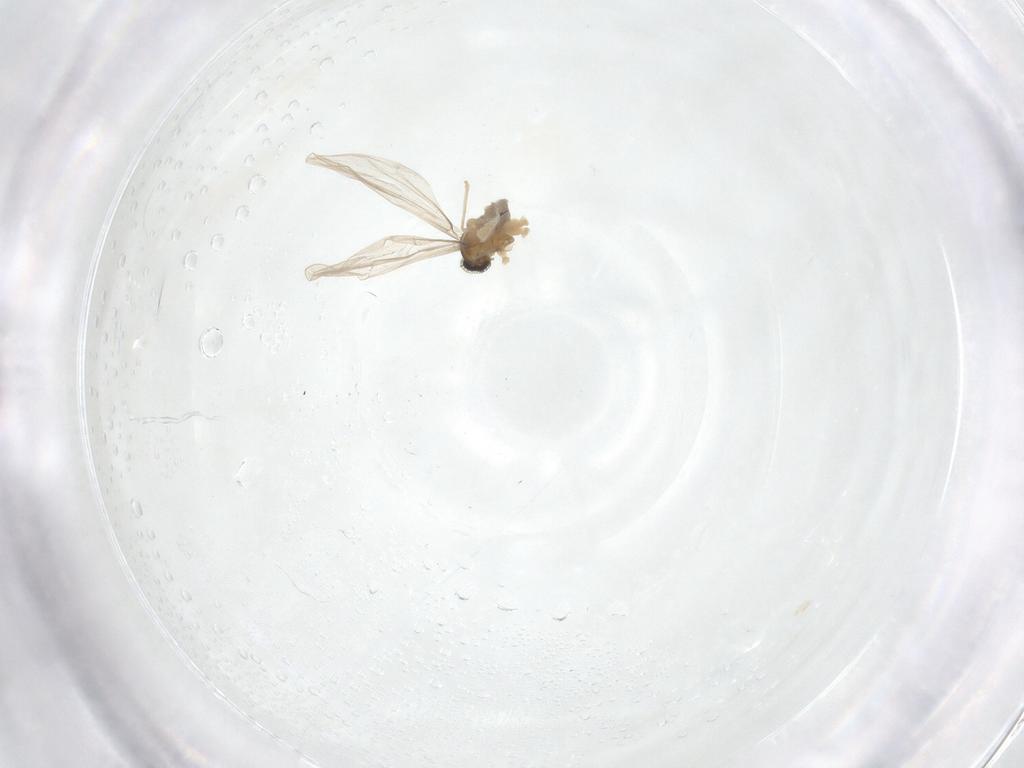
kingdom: Animalia
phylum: Arthropoda
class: Insecta
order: Diptera
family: Cecidomyiidae
